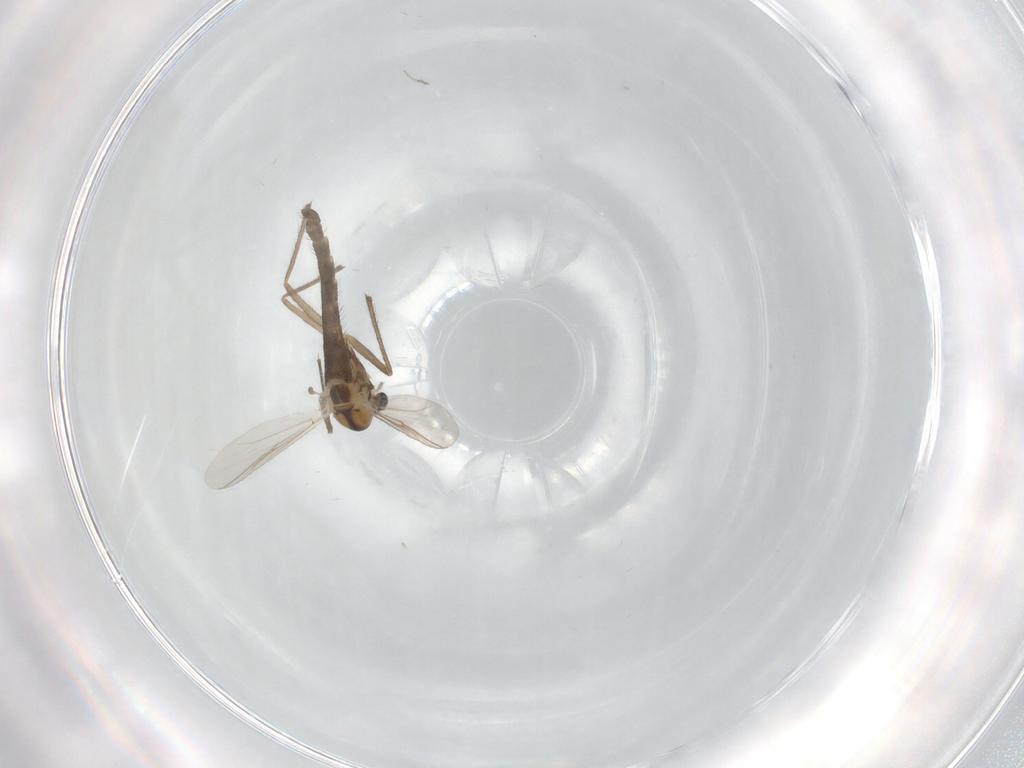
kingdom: Animalia
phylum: Arthropoda
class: Insecta
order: Diptera
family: Chironomidae
